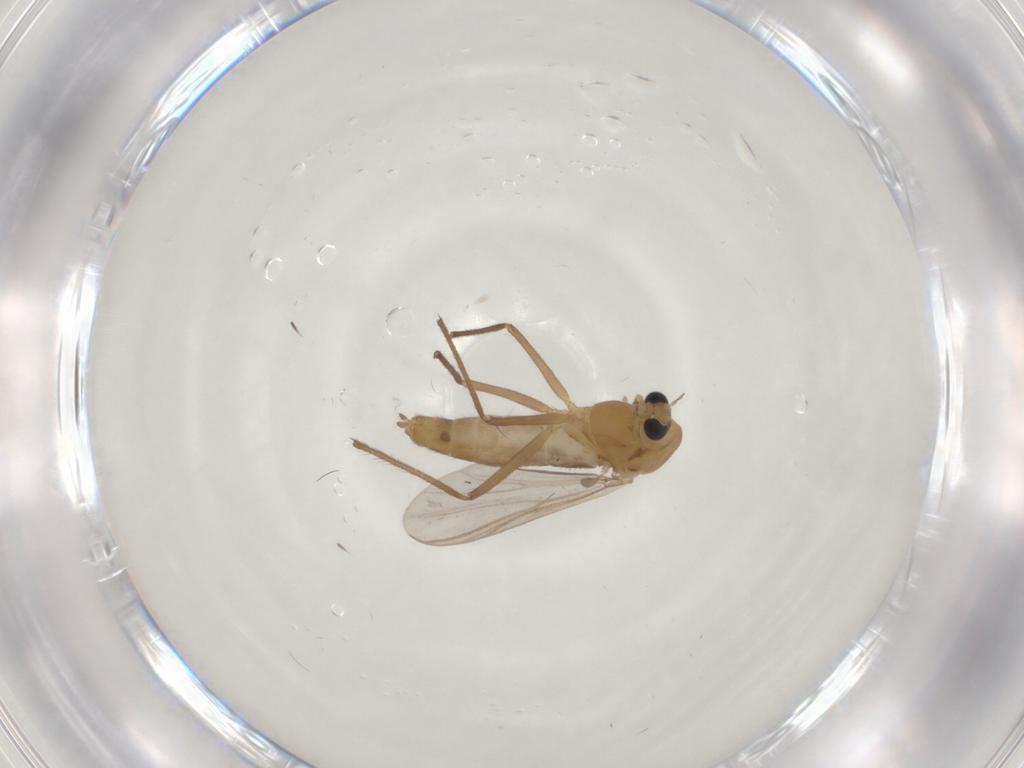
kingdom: Animalia
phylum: Arthropoda
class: Insecta
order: Diptera
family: Chironomidae
